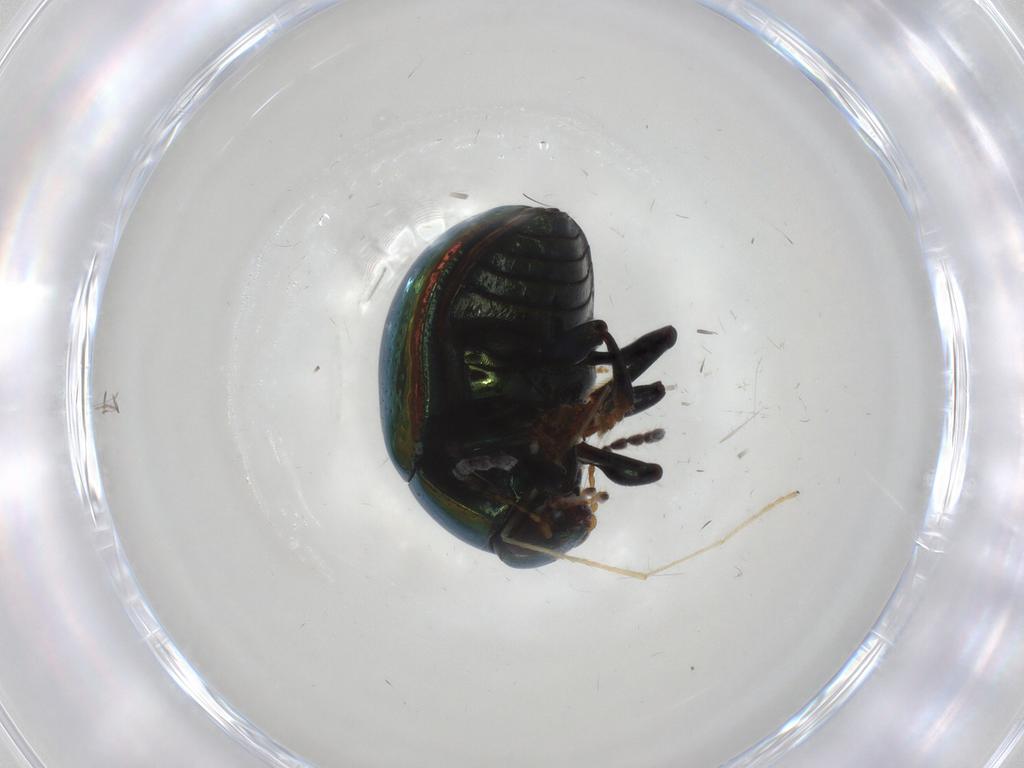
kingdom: Animalia
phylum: Arthropoda
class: Insecta
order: Coleoptera
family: Chrysomelidae
